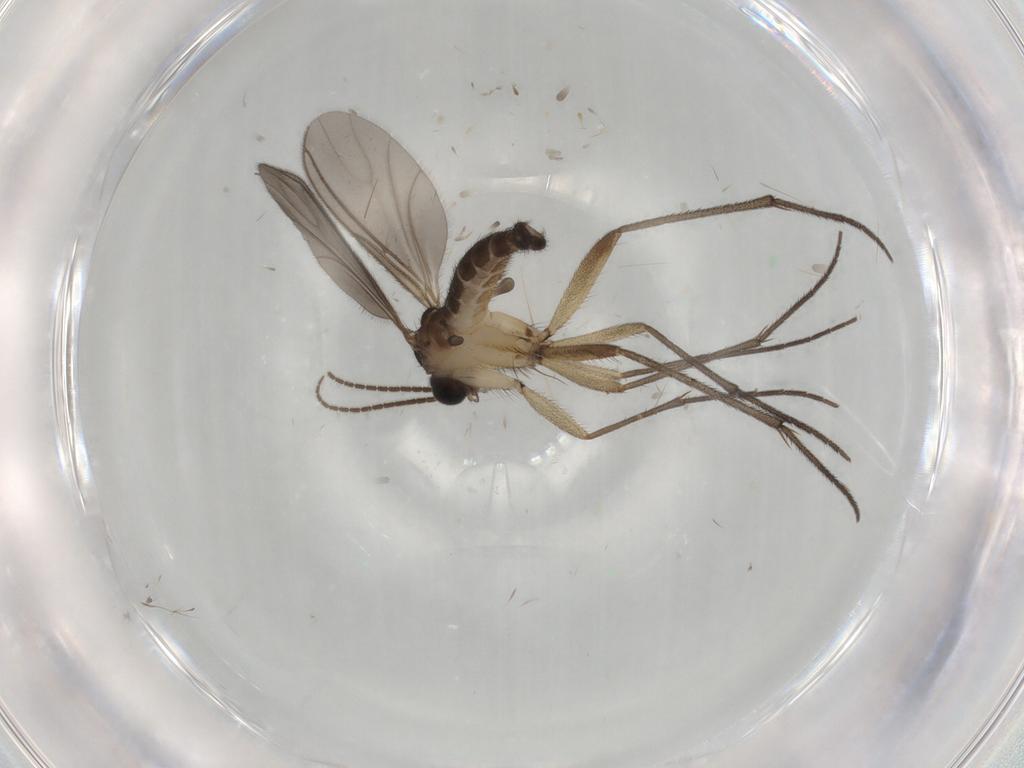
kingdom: Animalia
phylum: Arthropoda
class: Insecta
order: Diptera
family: Sciaridae
